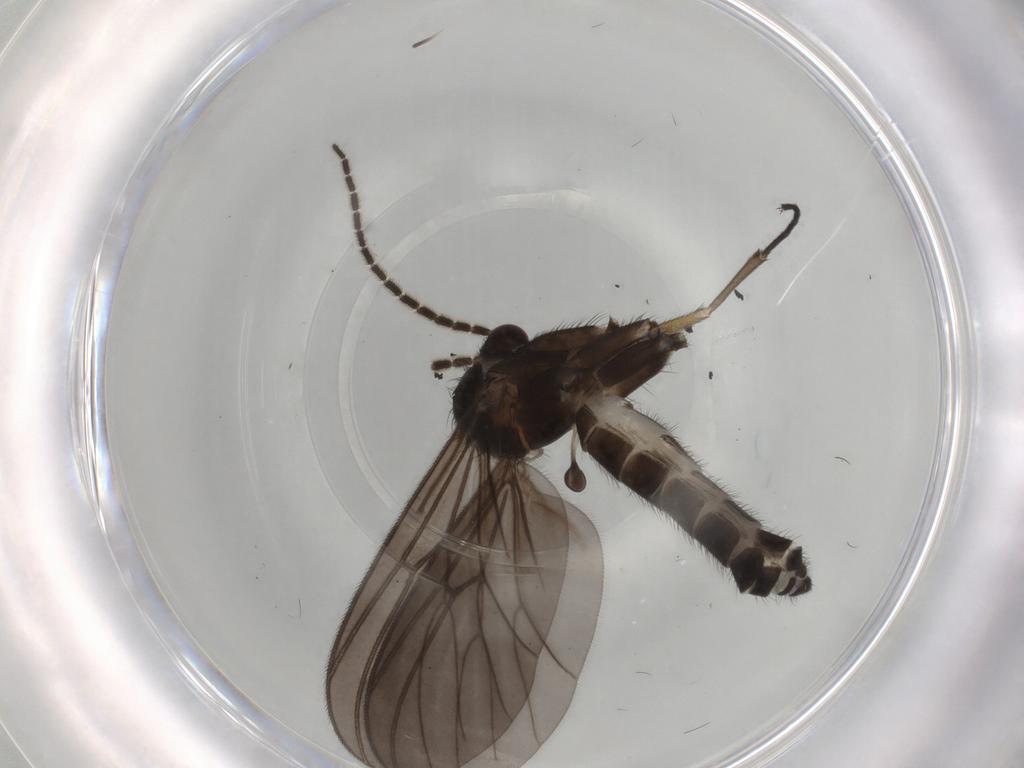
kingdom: Animalia
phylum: Arthropoda
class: Insecta
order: Diptera
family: Mycetophilidae
